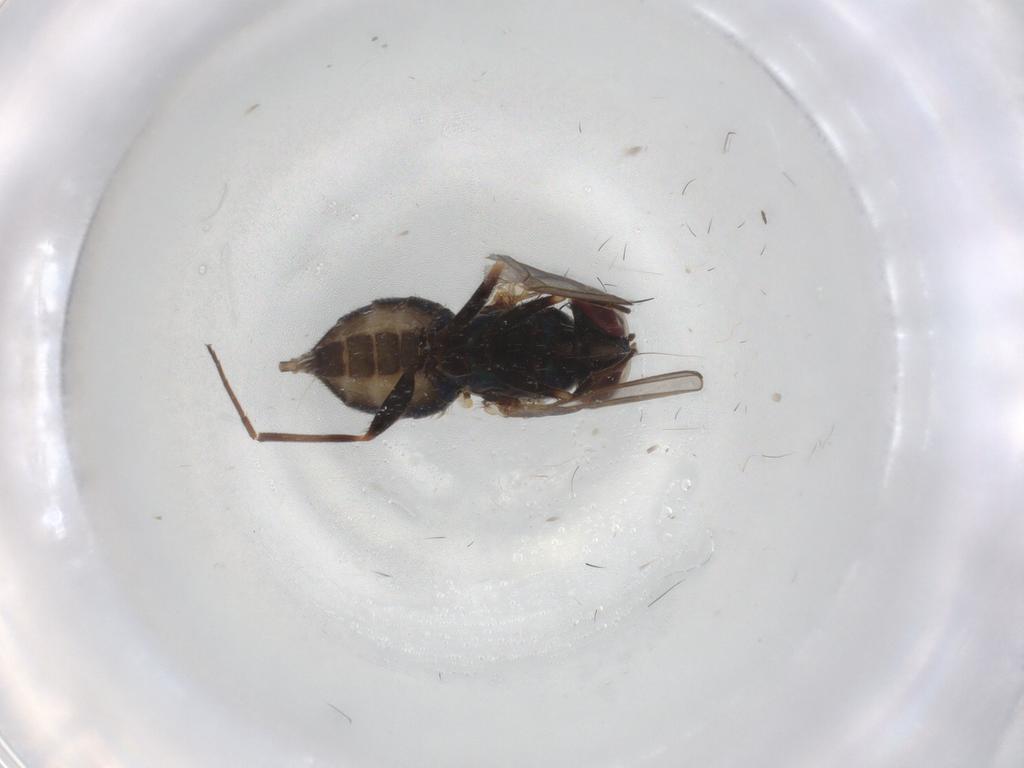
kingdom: Animalia
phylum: Arthropoda
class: Insecta
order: Diptera
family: Dolichopodidae
